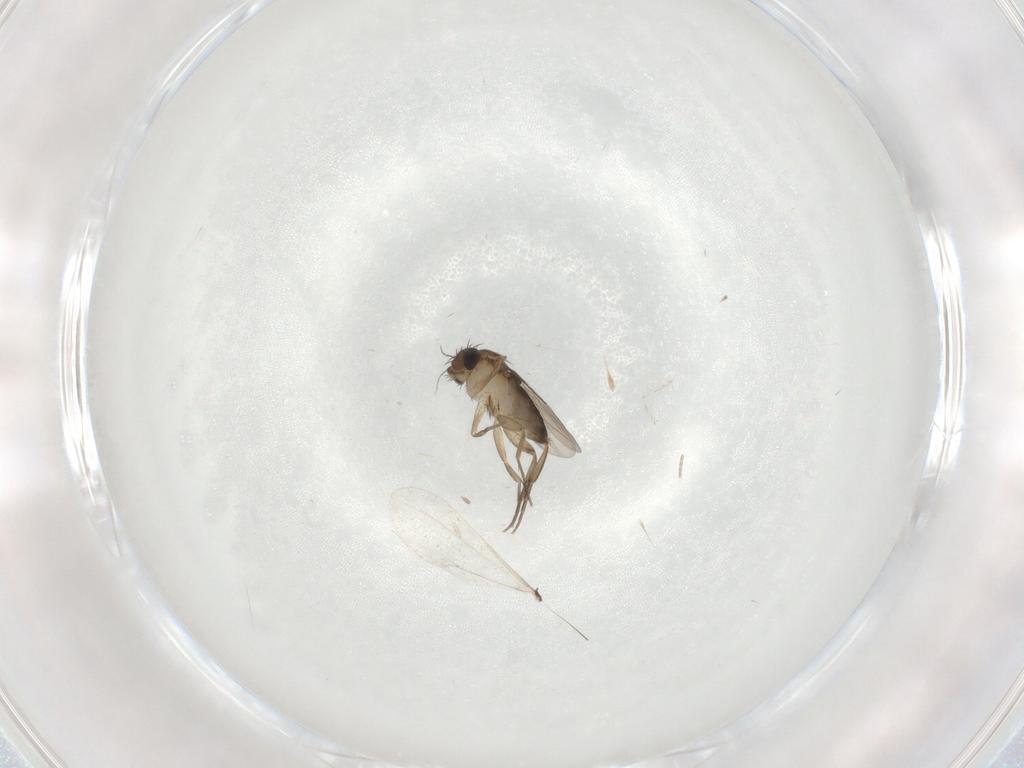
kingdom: Animalia
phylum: Arthropoda
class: Insecta
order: Diptera
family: Phoridae
